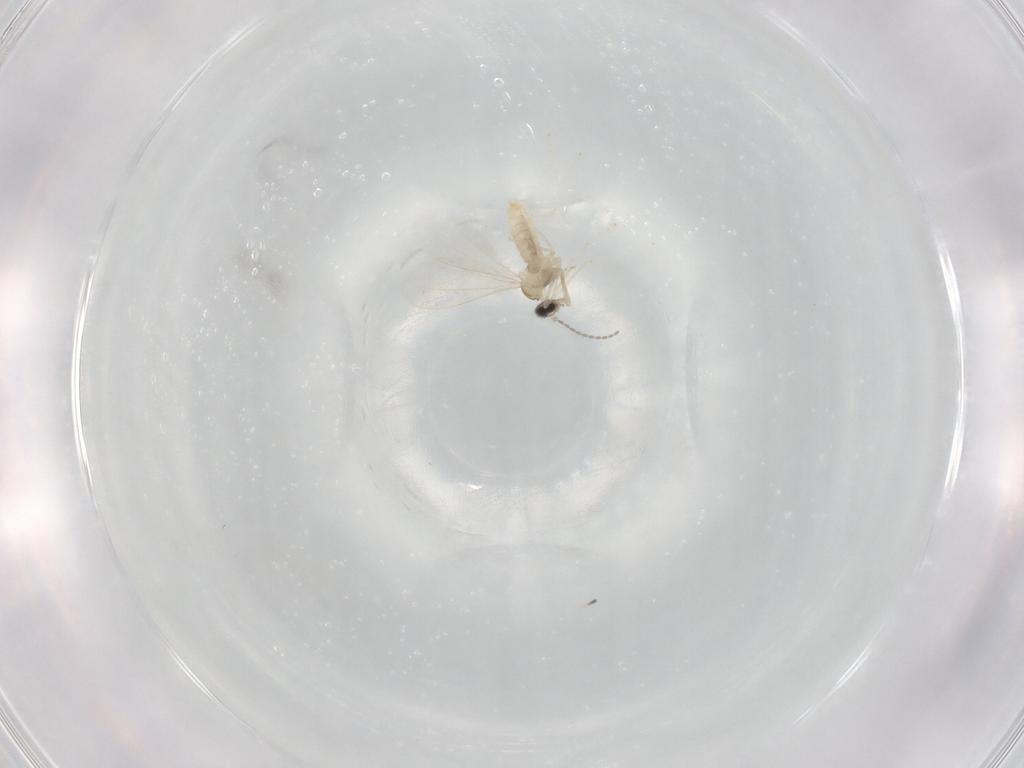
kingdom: Animalia
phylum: Arthropoda
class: Insecta
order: Diptera
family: Cecidomyiidae
